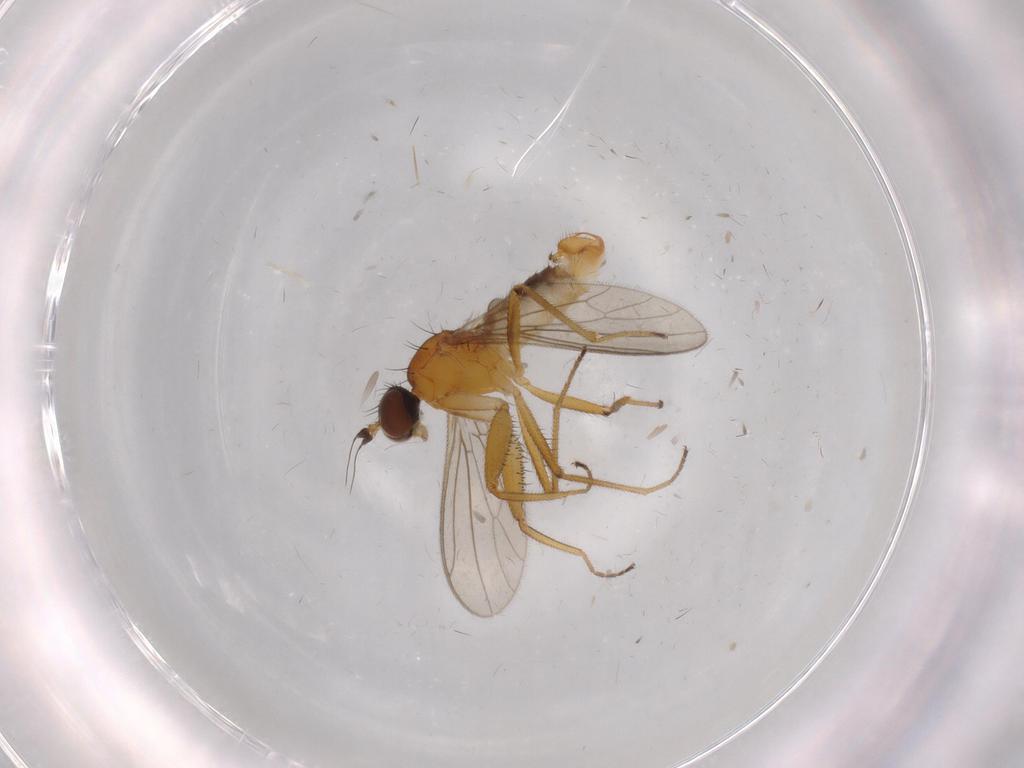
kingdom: Animalia
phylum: Arthropoda
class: Insecta
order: Diptera
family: Empididae
